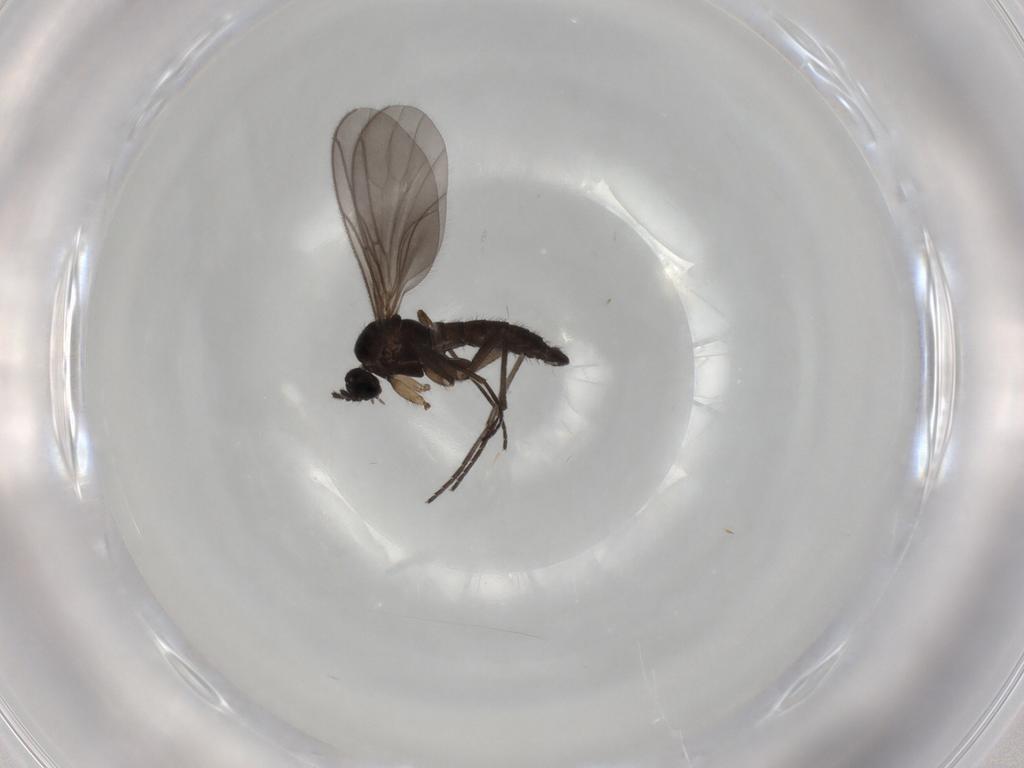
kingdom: Animalia
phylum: Arthropoda
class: Insecta
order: Diptera
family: Sciaridae
